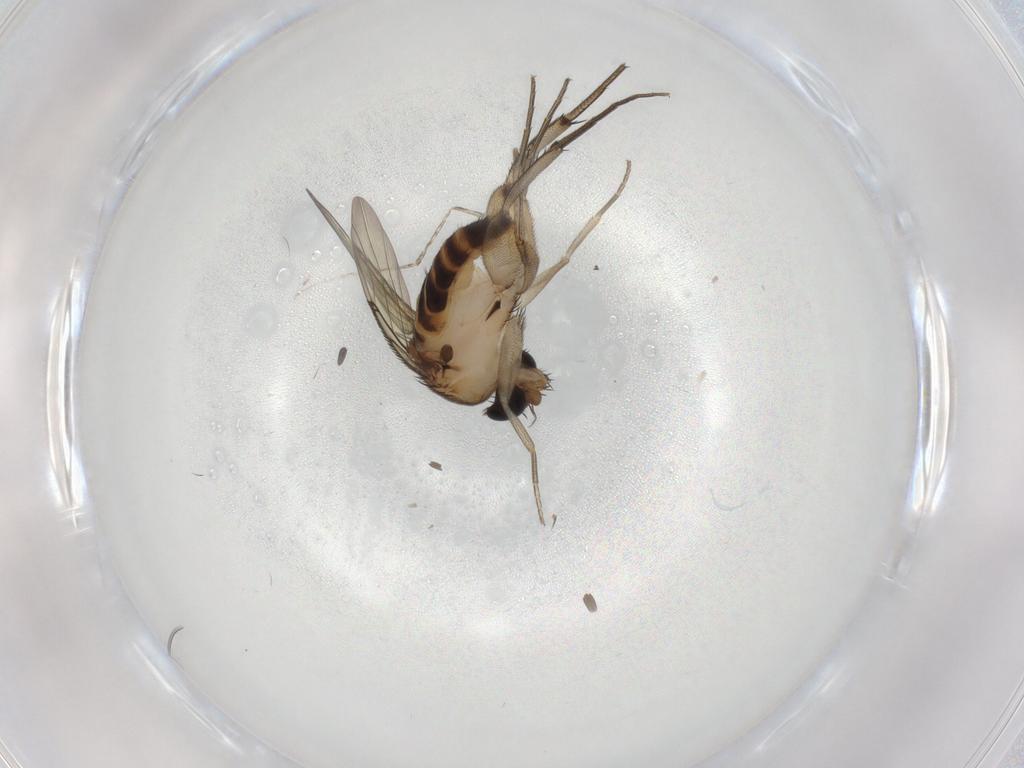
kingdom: Animalia
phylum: Arthropoda
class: Insecta
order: Diptera
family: Phoridae
